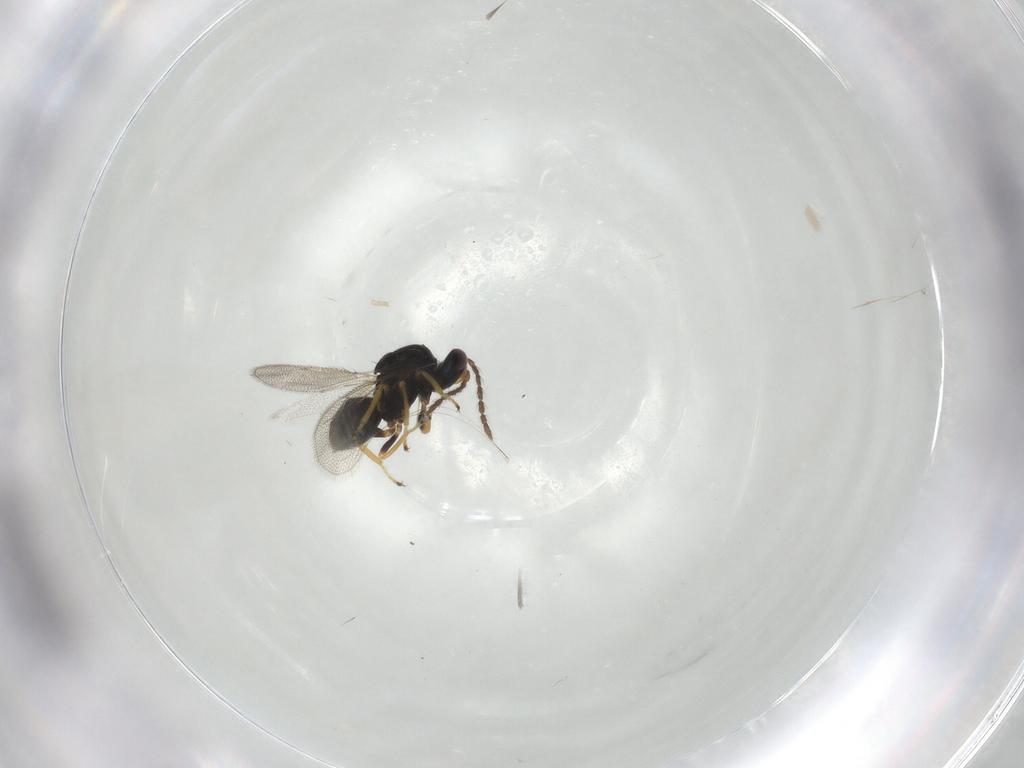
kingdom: Animalia
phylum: Arthropoda
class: Insecta
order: Hymenoptera
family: Eulophidae
